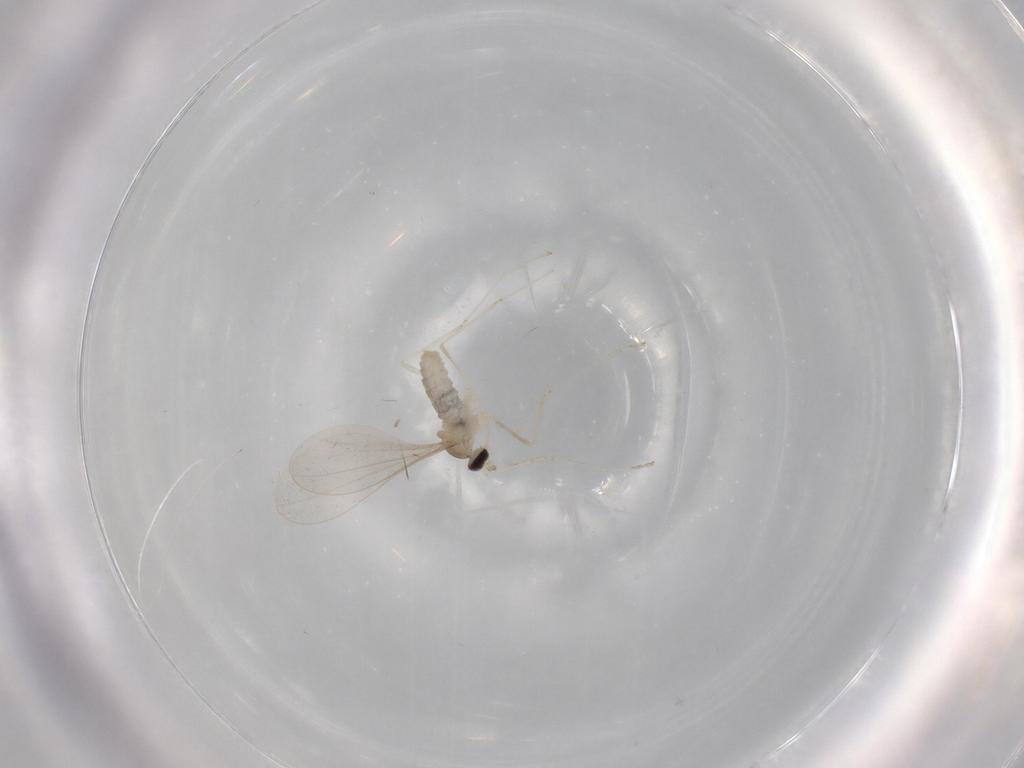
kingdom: Animalia
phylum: Arthropoda
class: Insecta
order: Diptera
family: Cecidomyiidae
